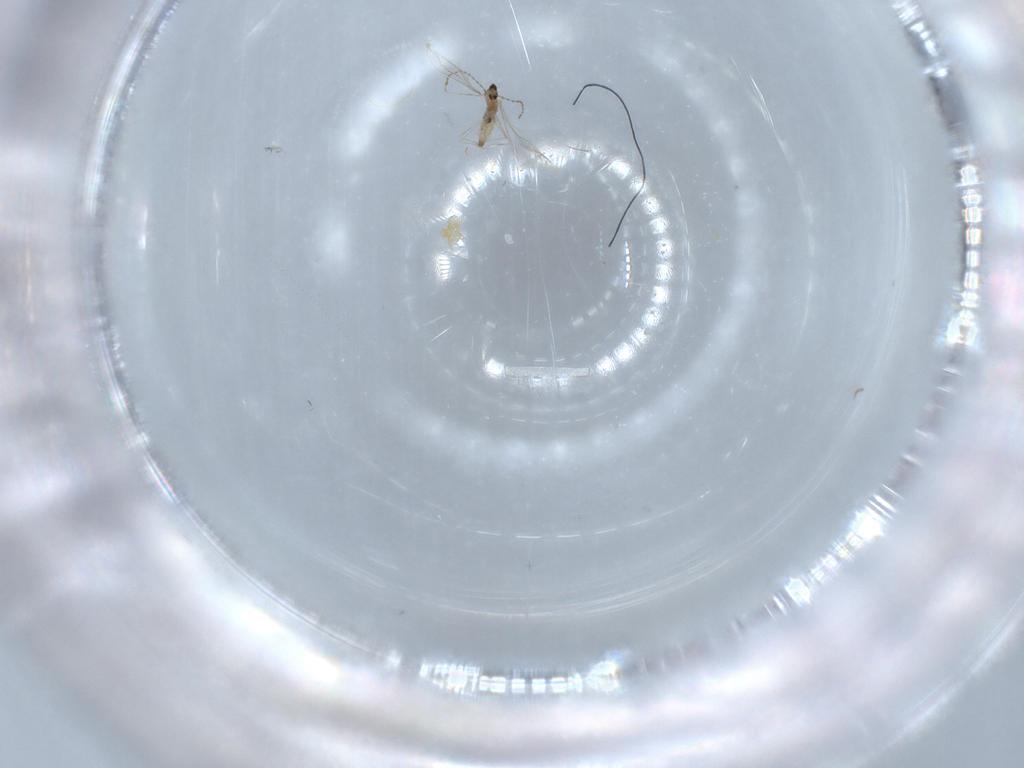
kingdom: Animalia
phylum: Arthropoda
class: Insecta
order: Diptera
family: Cecidomyiidae
